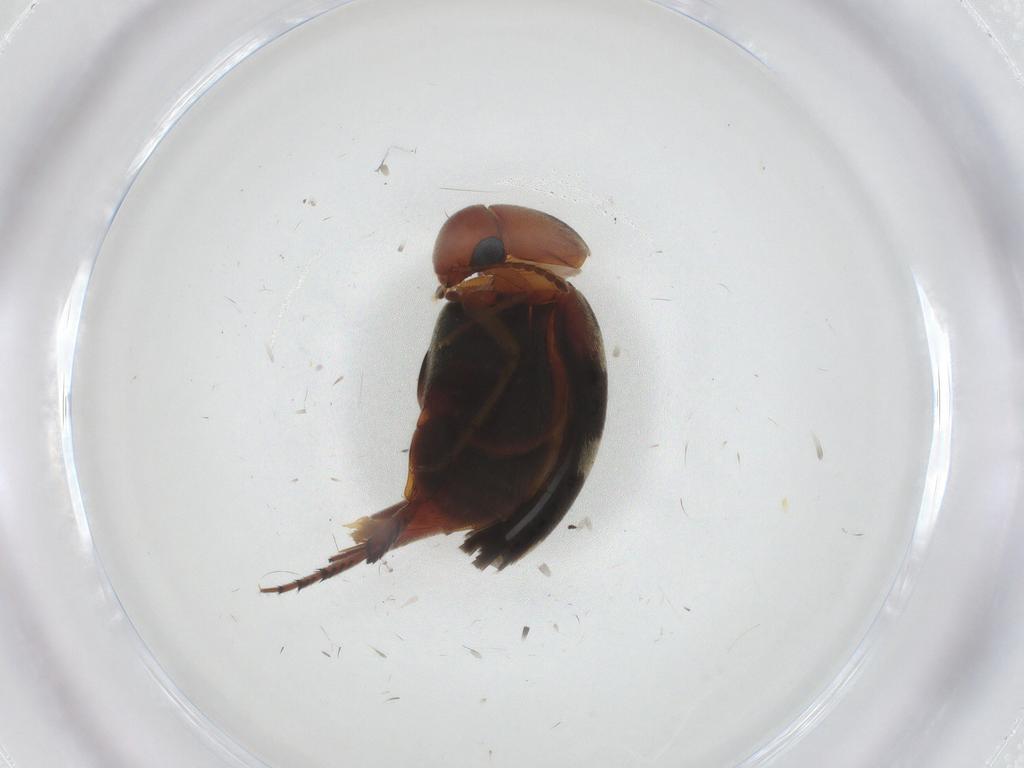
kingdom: Animalia
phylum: Arthropoda
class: Insecta
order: Coleoptera
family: Mordellidae
